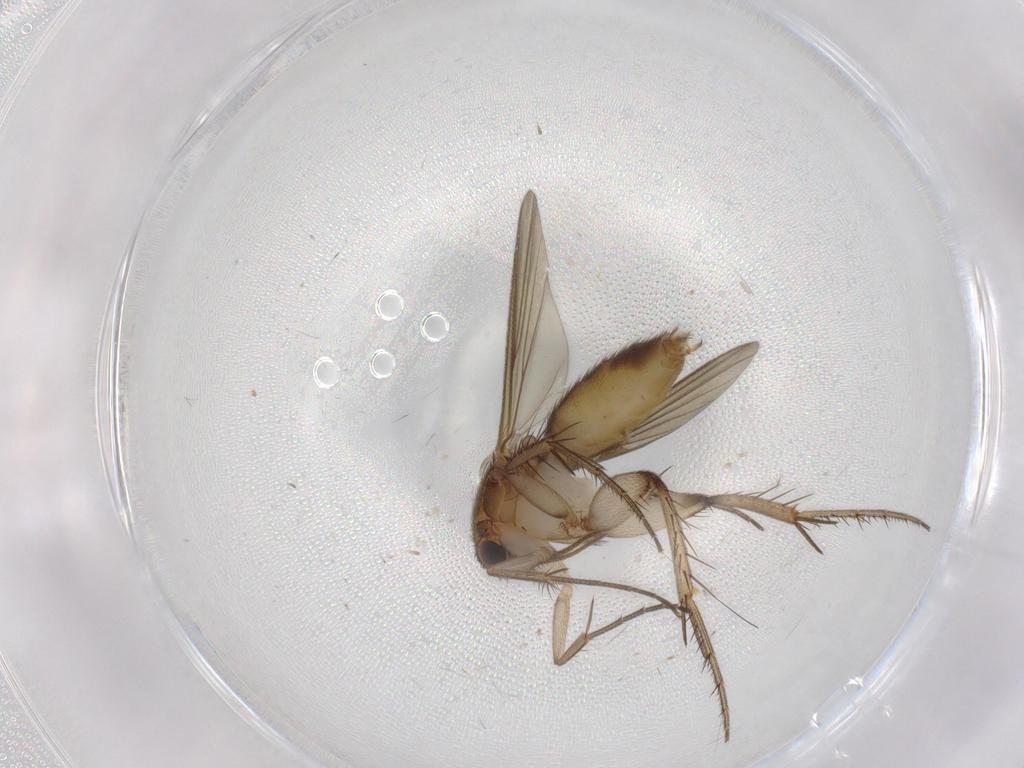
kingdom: Animalia
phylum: Arthropoda
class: Insecta
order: Diptera
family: Mycetophilidae
